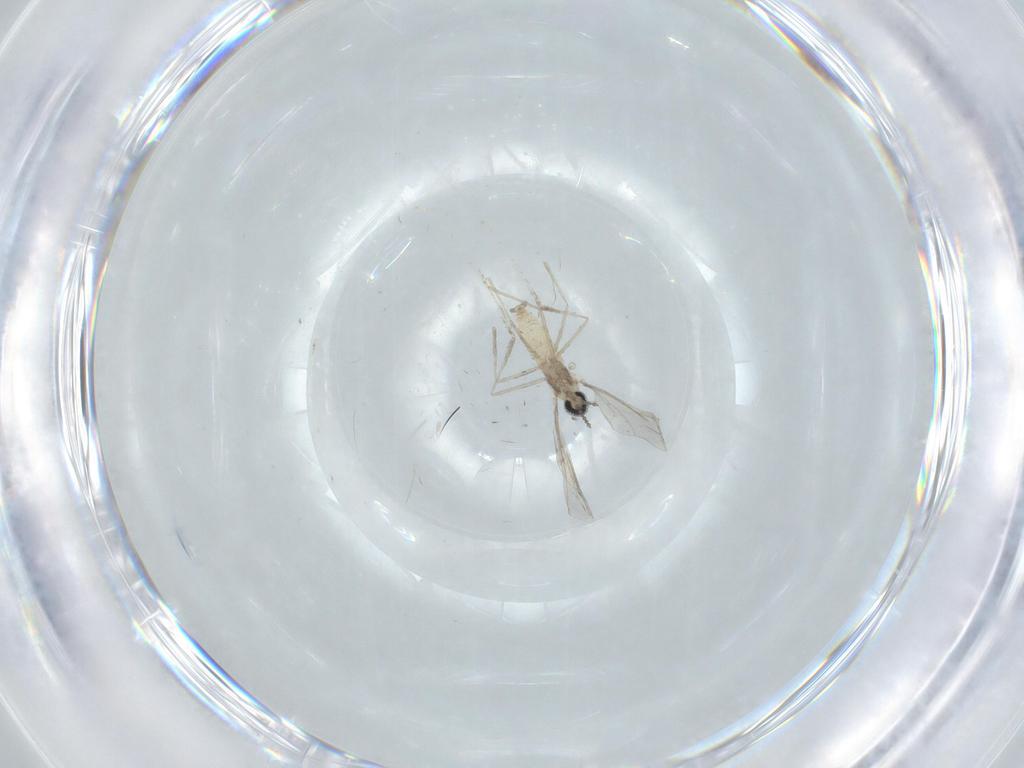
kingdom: Animalia
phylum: Arthropoda
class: Insecta
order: Diptera
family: Cecidomyiidae
